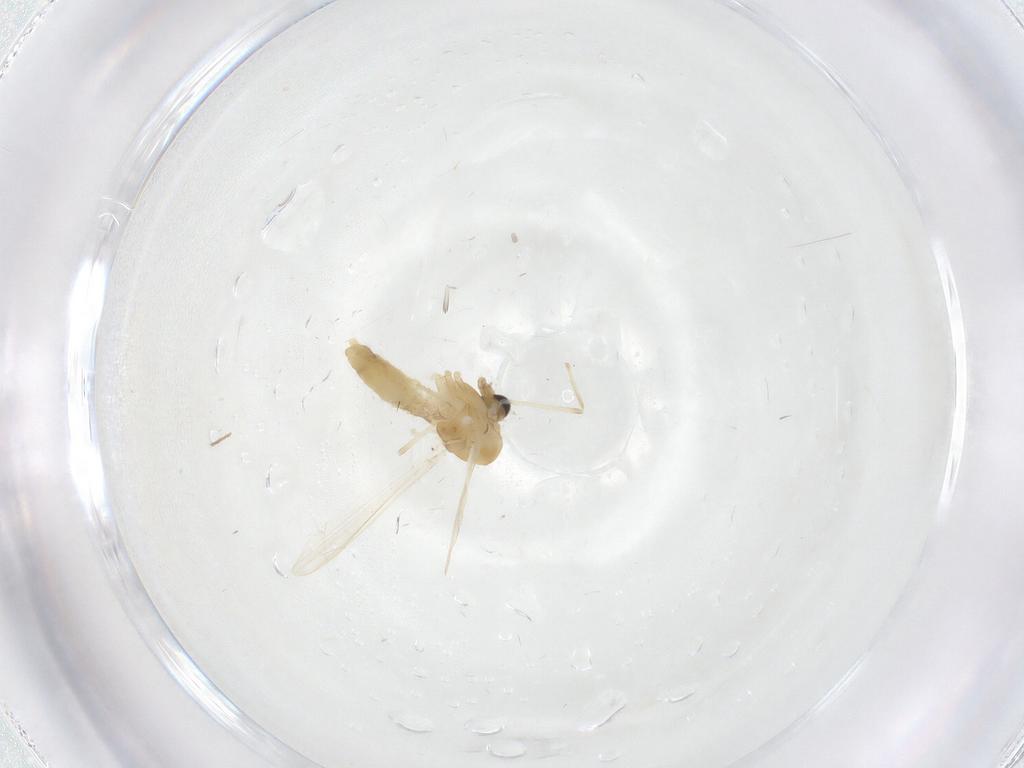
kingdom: Animalia
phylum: Arthropoda
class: Insecta
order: Diptera
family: Chironomidae
